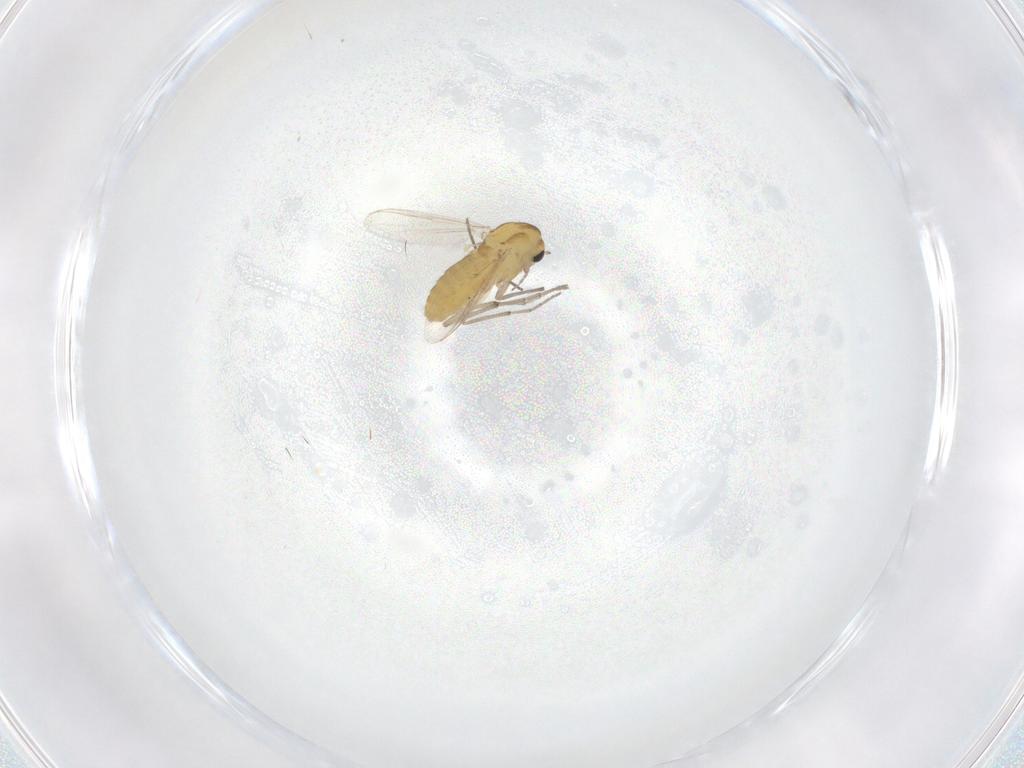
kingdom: Animalia
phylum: Arthropoda
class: Insecta
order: Diptera
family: Chironomidae
